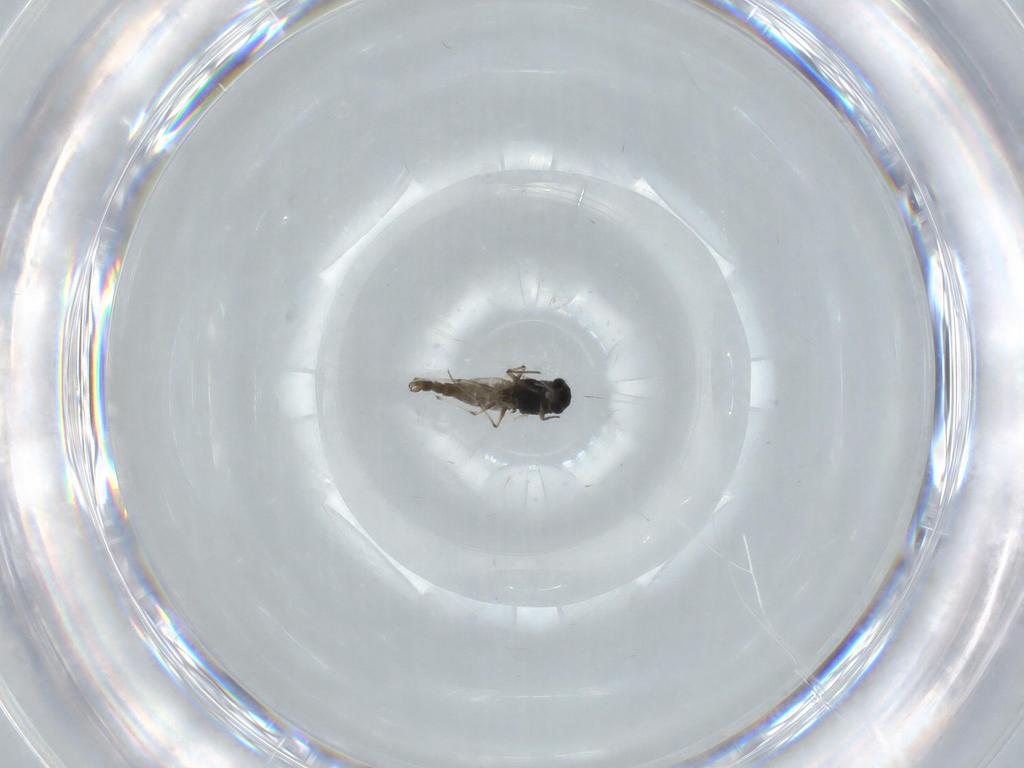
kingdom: Animalia
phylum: Arthropoda
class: Insecta
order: Diptera
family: Chironomidae
